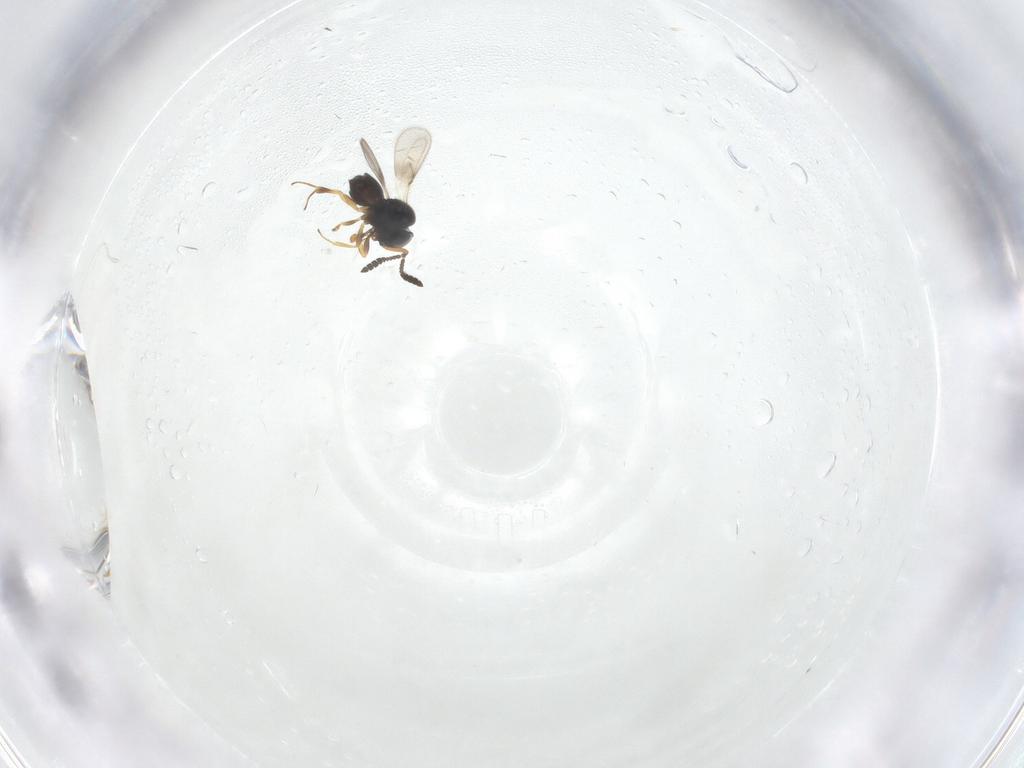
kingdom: Animalia
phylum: Arthropoda
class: Insecta
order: Hymenoptera
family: Scelionidae
